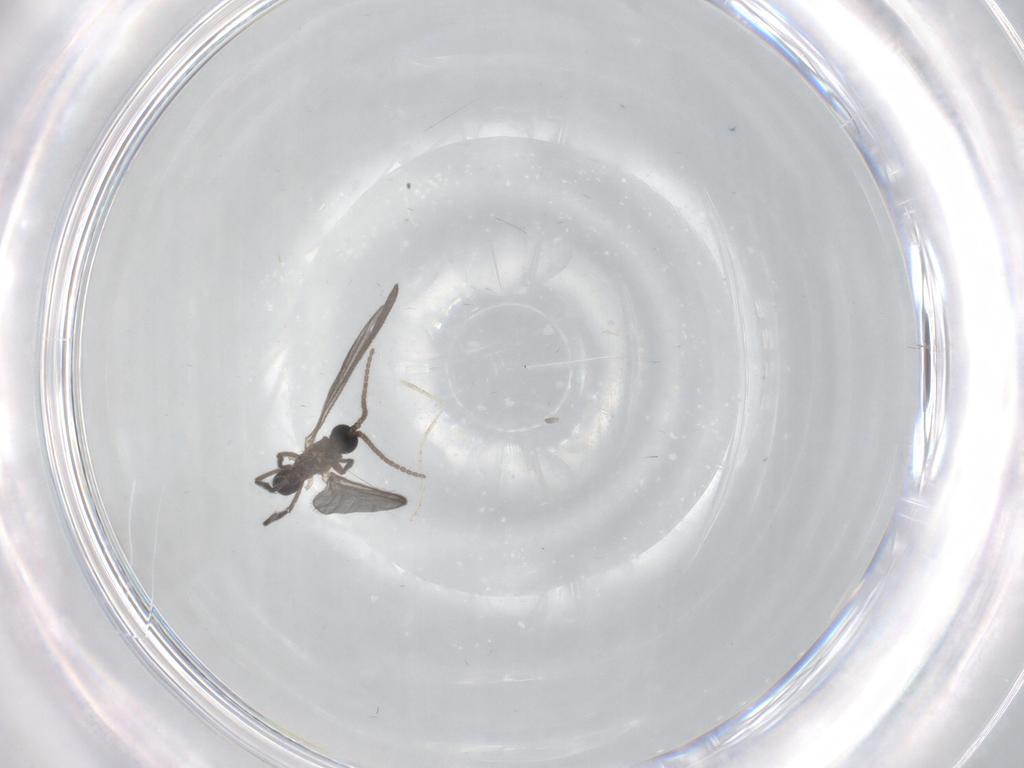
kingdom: Animalia
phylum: Arthropoda
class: Insecta
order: Diptera
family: Sciaridae
